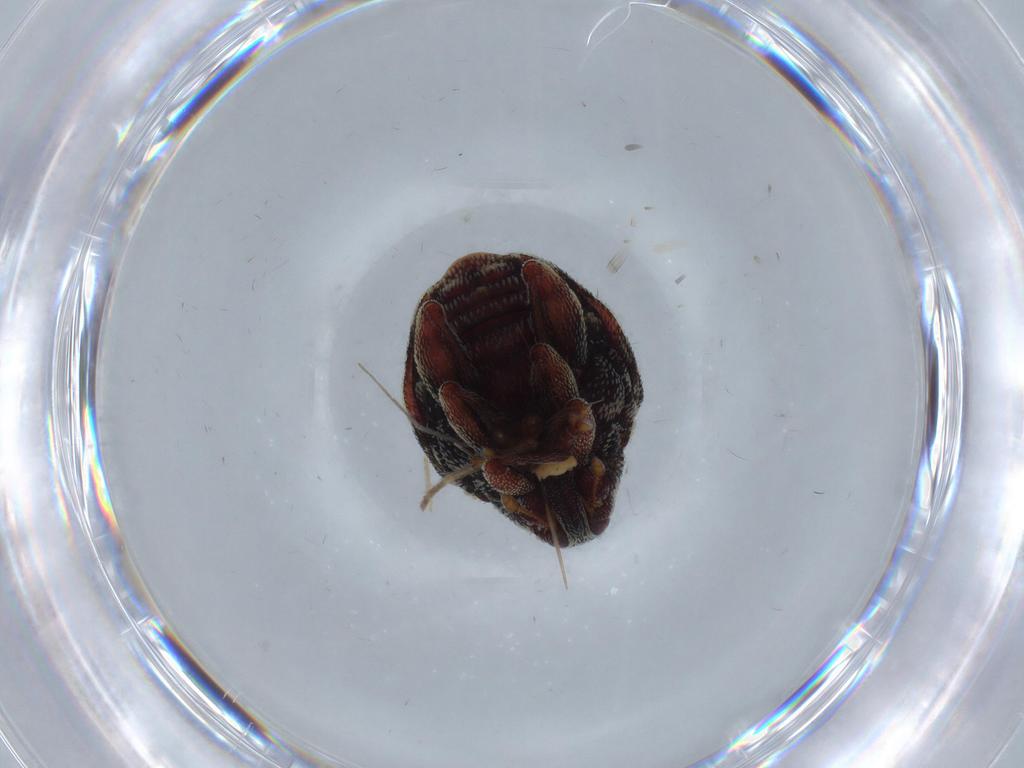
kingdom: Animalia
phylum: Arthropoda
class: Insecta
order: Coleoptera
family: Curculionidae
